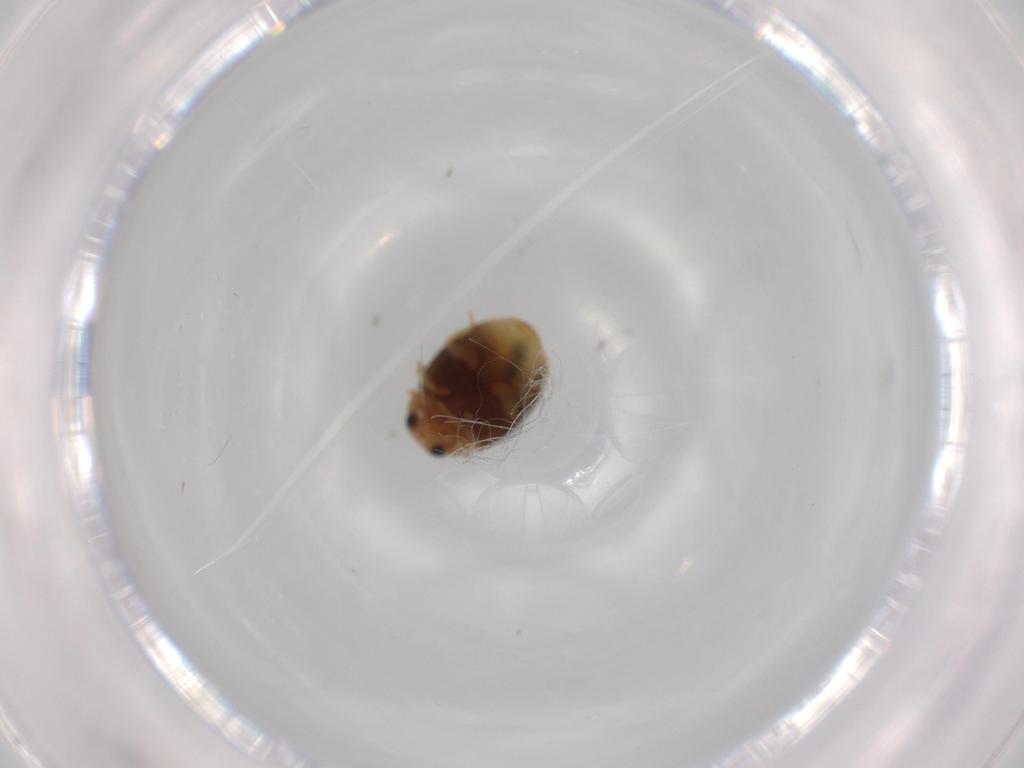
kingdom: Animalia
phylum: Arthropoda
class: Insecta
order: Coleoptera
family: Coccinellidae
